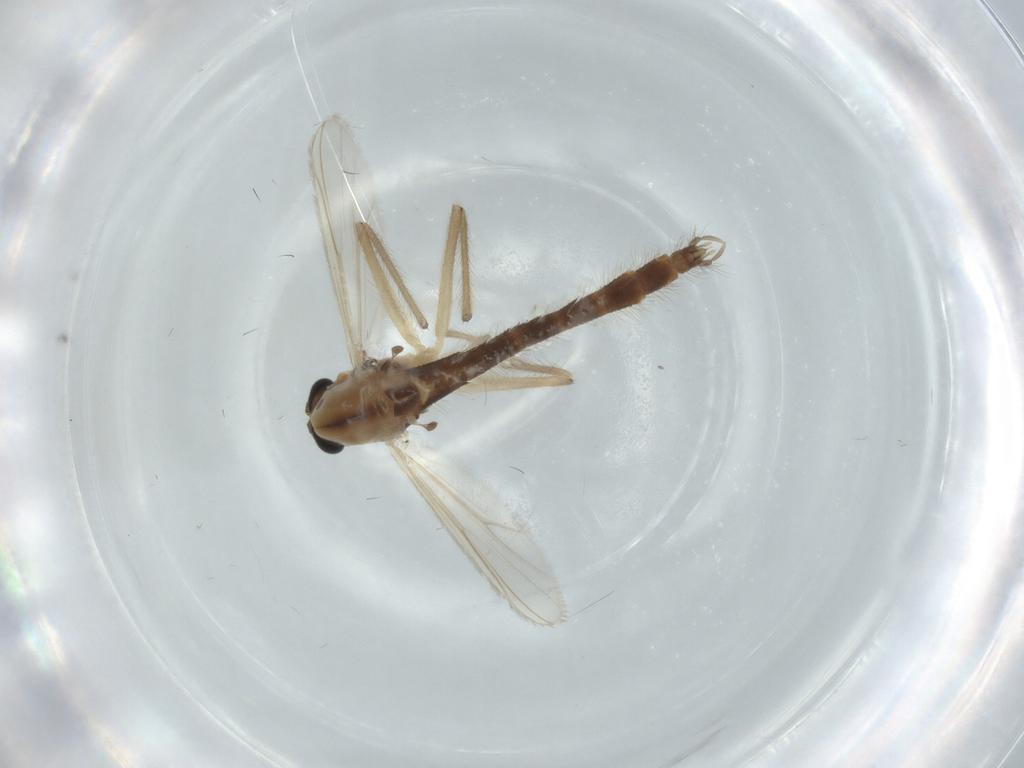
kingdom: Animalia
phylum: Arthropoda
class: Insecta
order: Diptera
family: Chironomidae
